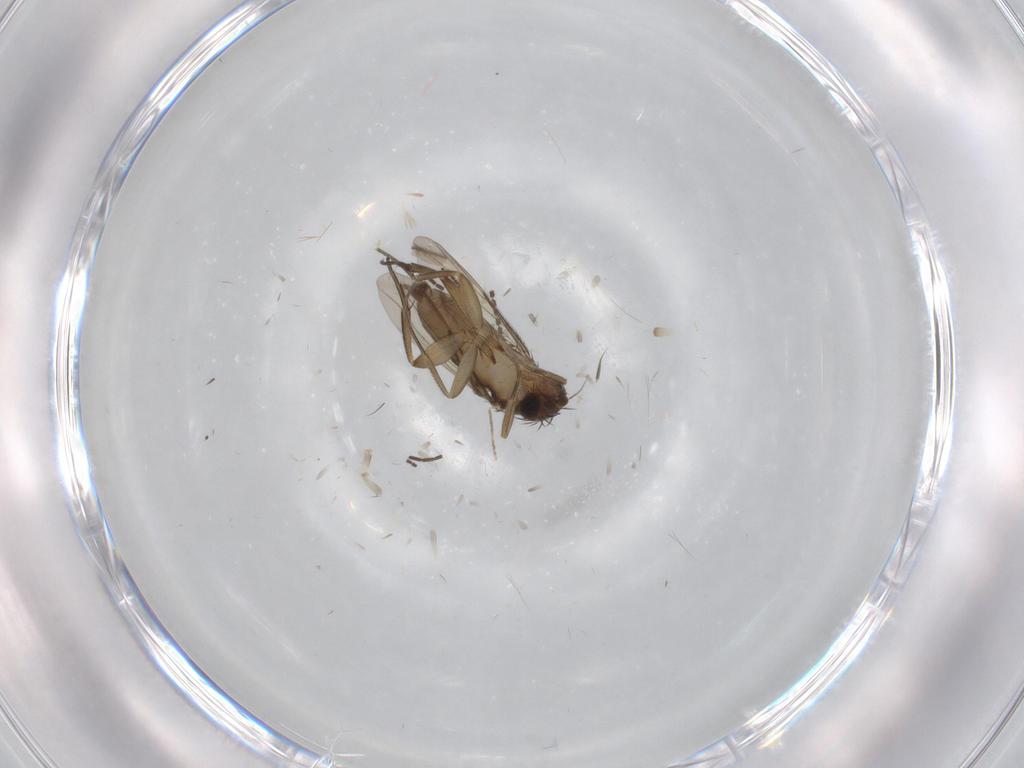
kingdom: Animalia
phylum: Arthropoda
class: Insecta
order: Diptera
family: Phoridae
